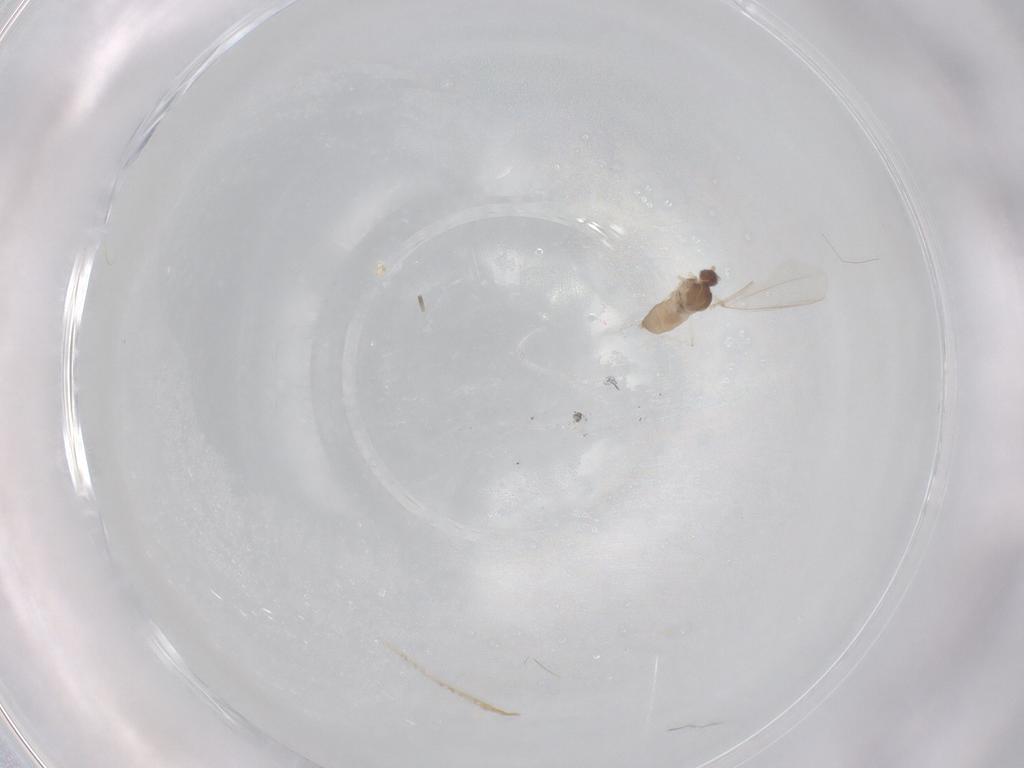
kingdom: Animalia
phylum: Arthropoda
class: Insecta
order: Diptera
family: Cecidomyiidae
